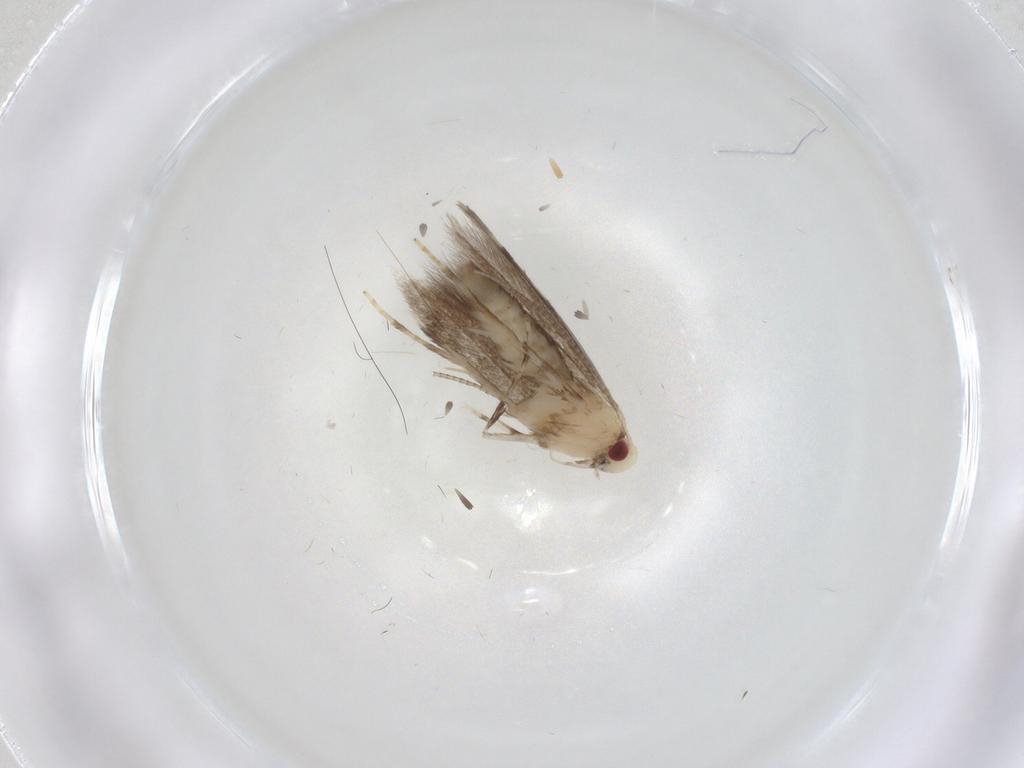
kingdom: Animalia
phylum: Arthropoda
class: Insecta
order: Lepidoptera
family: Gracillariidae
